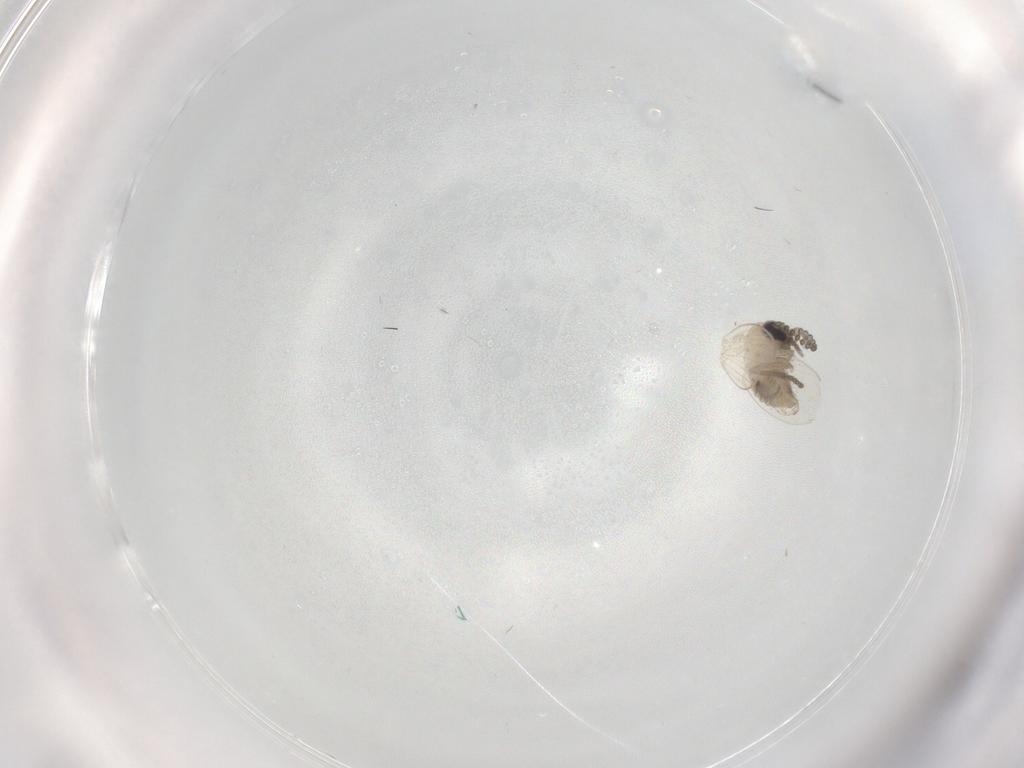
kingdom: Animalia
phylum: Arthropoda
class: Insecta
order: Diptera
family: Psychodidae
